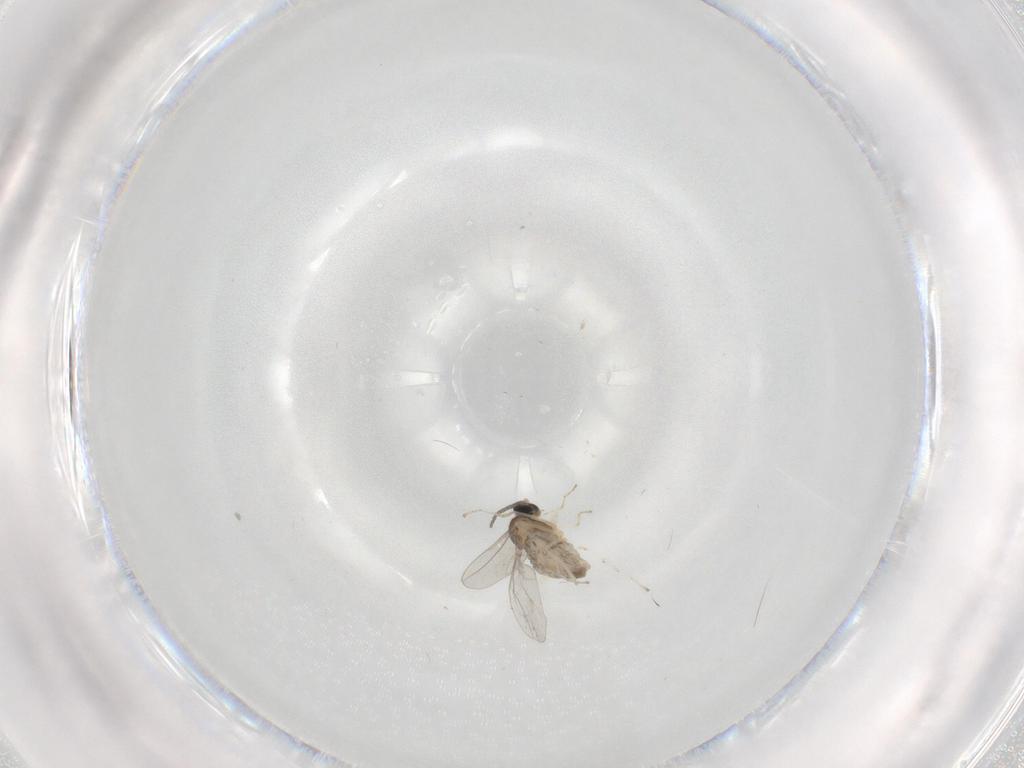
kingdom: Animalia
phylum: Arthropoda
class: Insecta
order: Diptera
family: Cecidomyiidae
